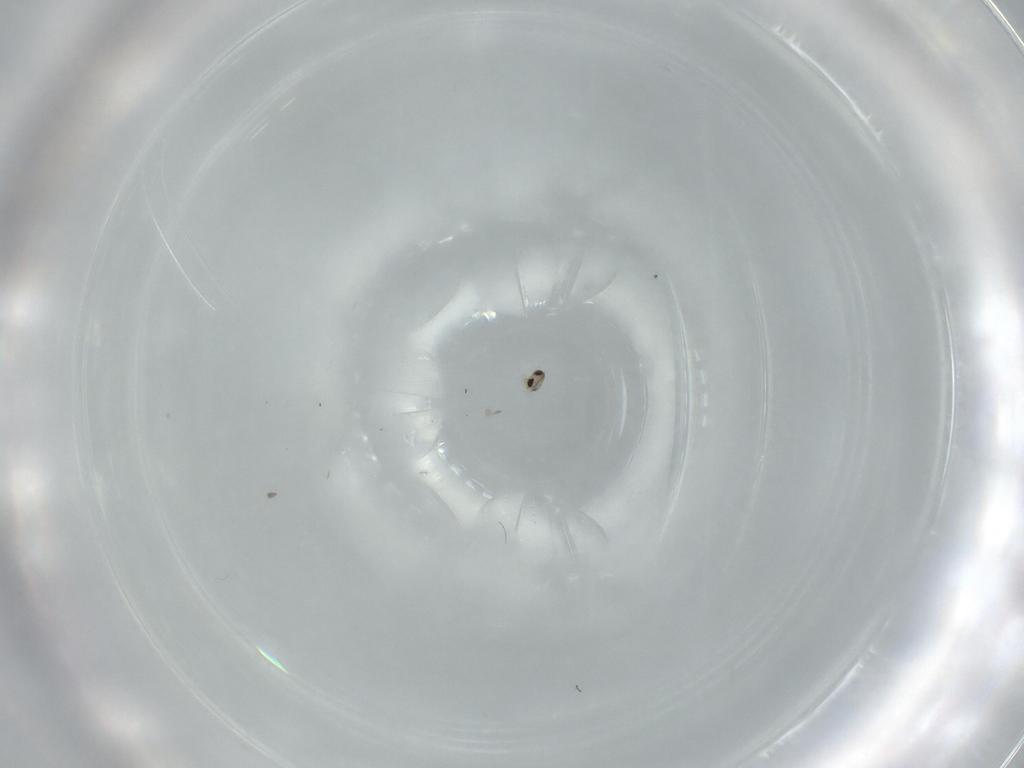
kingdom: Animalia
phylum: Arthropoda
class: Insecta
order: Diptera
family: Cecidomyiidae
